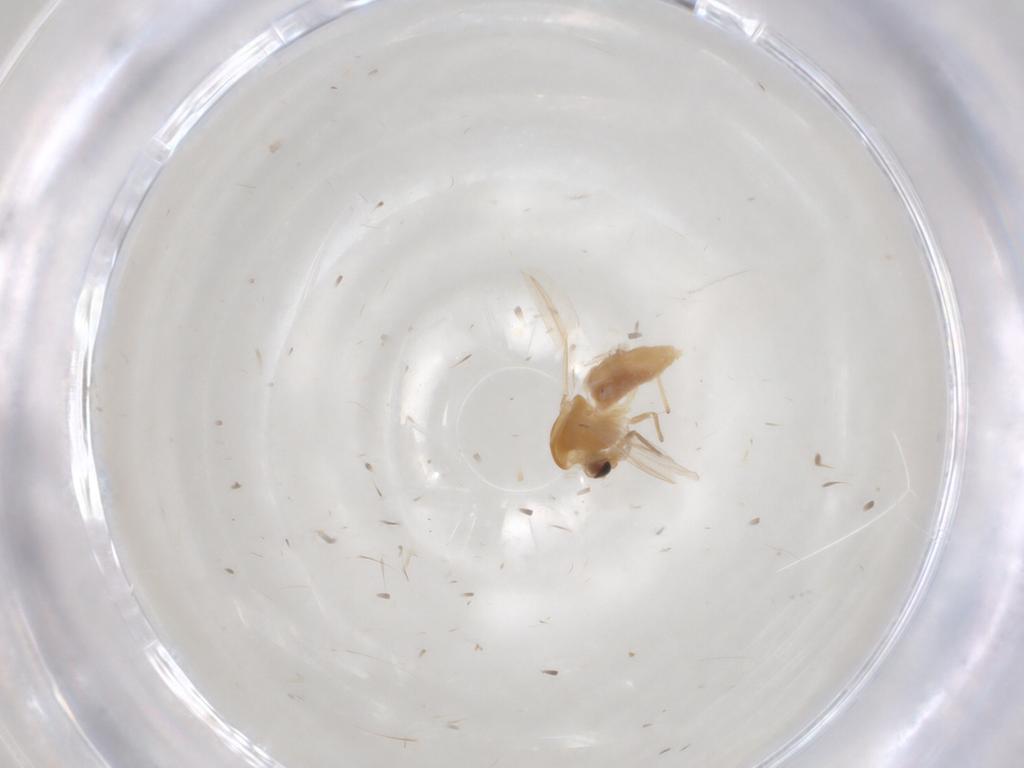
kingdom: Animalia
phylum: Arthropoda
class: Insecta
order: Diptera
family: Chironomidae
